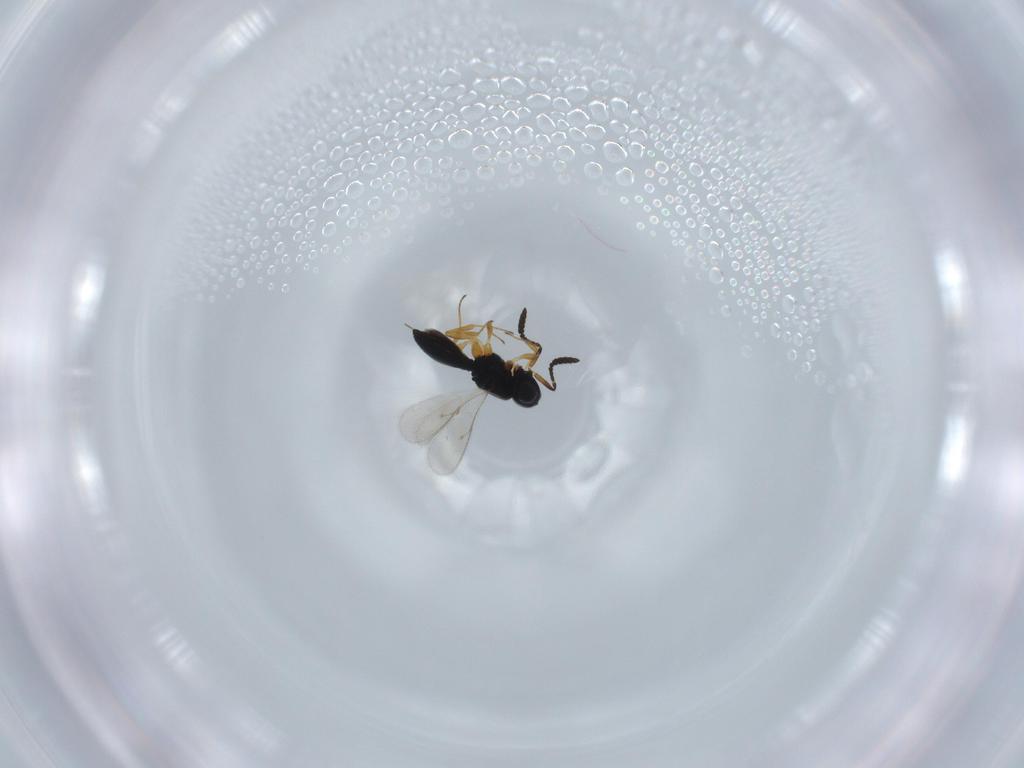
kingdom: Animalia
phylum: Arthropoda
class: Insecta
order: Hymenoptera
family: Scelionidae
